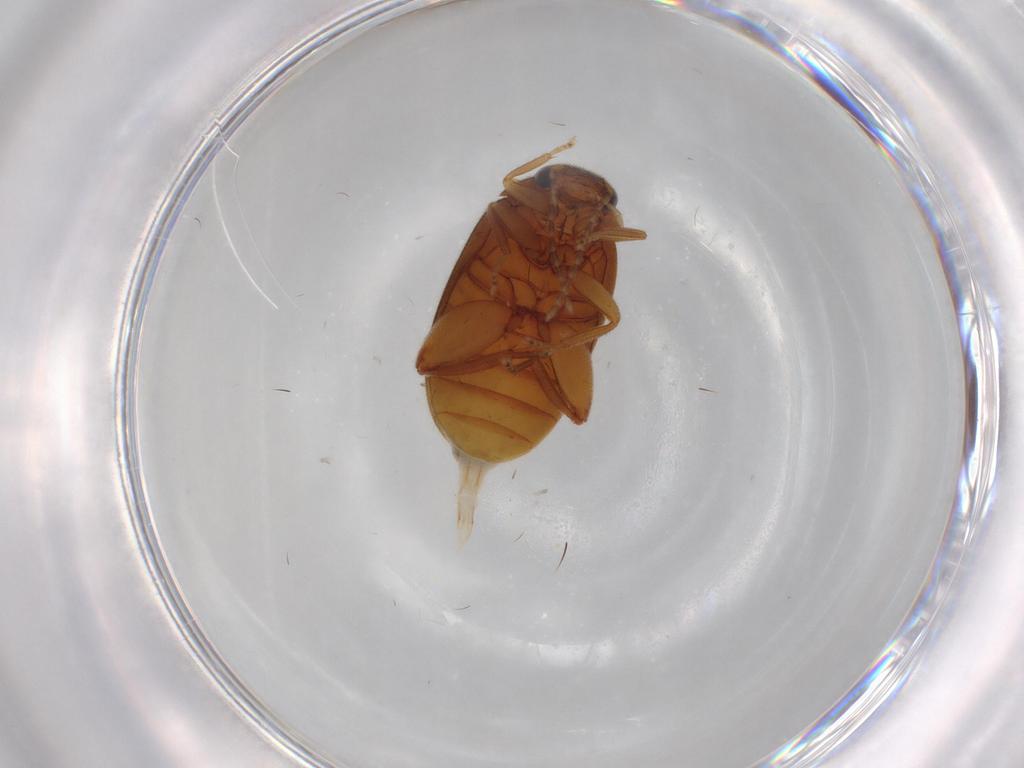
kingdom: Animalia
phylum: Arthropoda
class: Insecta
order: Coleoptera
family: Scirtidae
